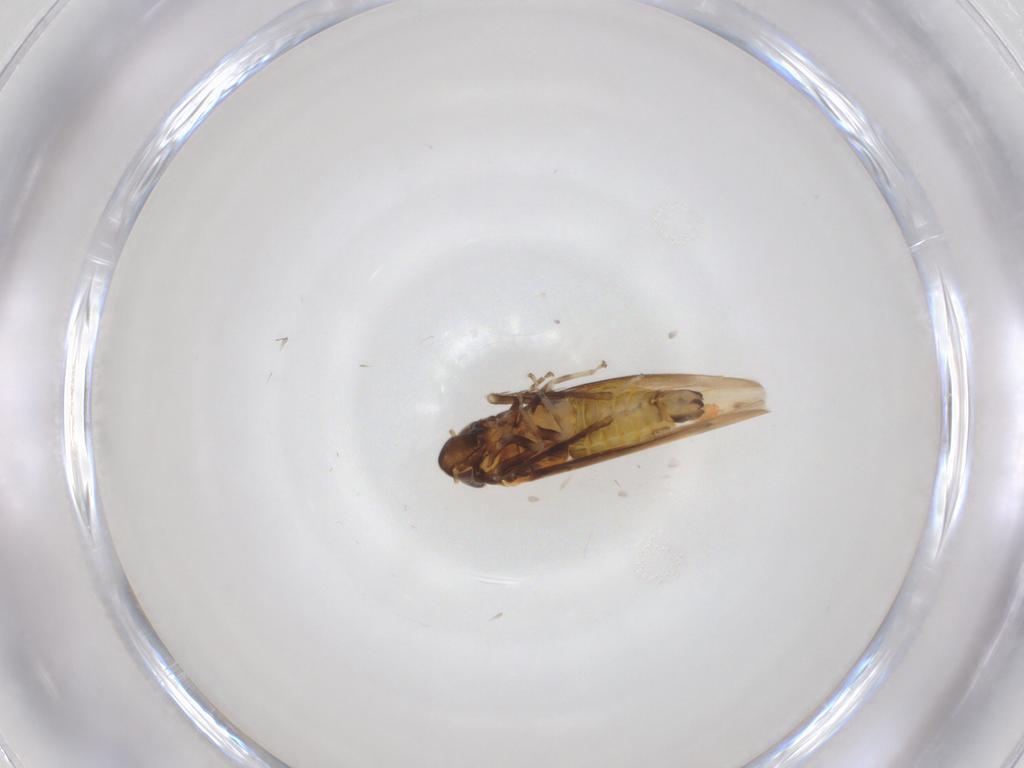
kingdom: Animalia
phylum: Arthropoda
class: Insecta
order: Hemiptera
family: Cicadellidae
